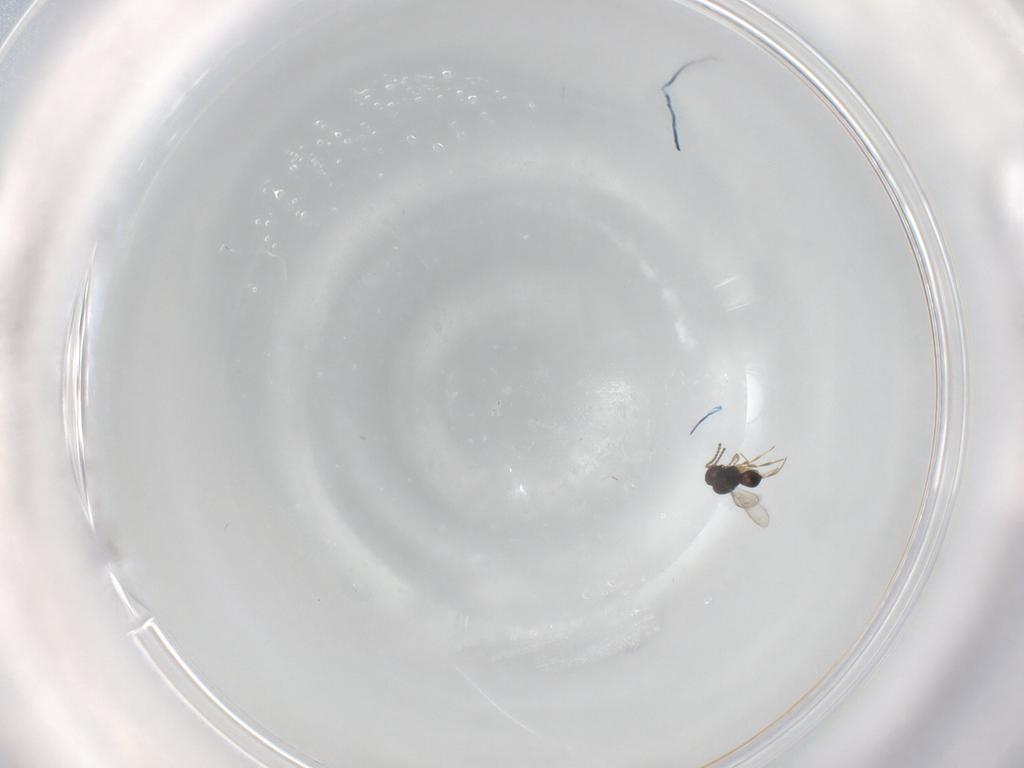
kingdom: Animalia
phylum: Arthropoda
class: Insecta
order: Hymenoptera
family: Scelionidae
